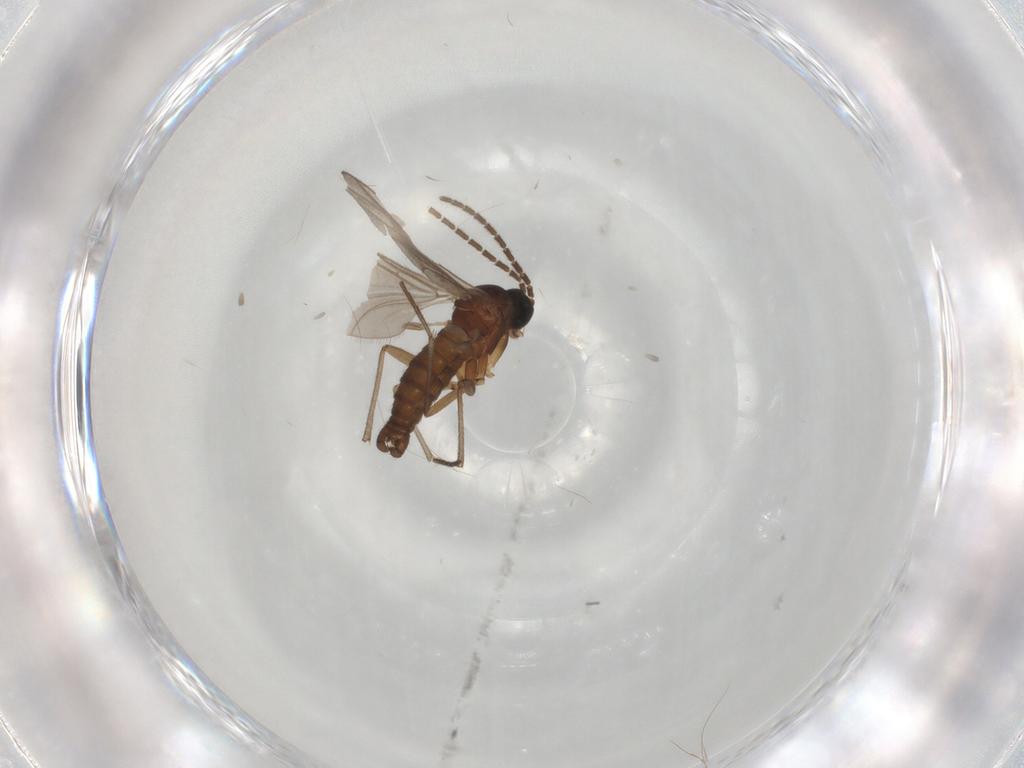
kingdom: Animalia
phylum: Arthropoda
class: Insecta
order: Diptera
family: Sciaridae
